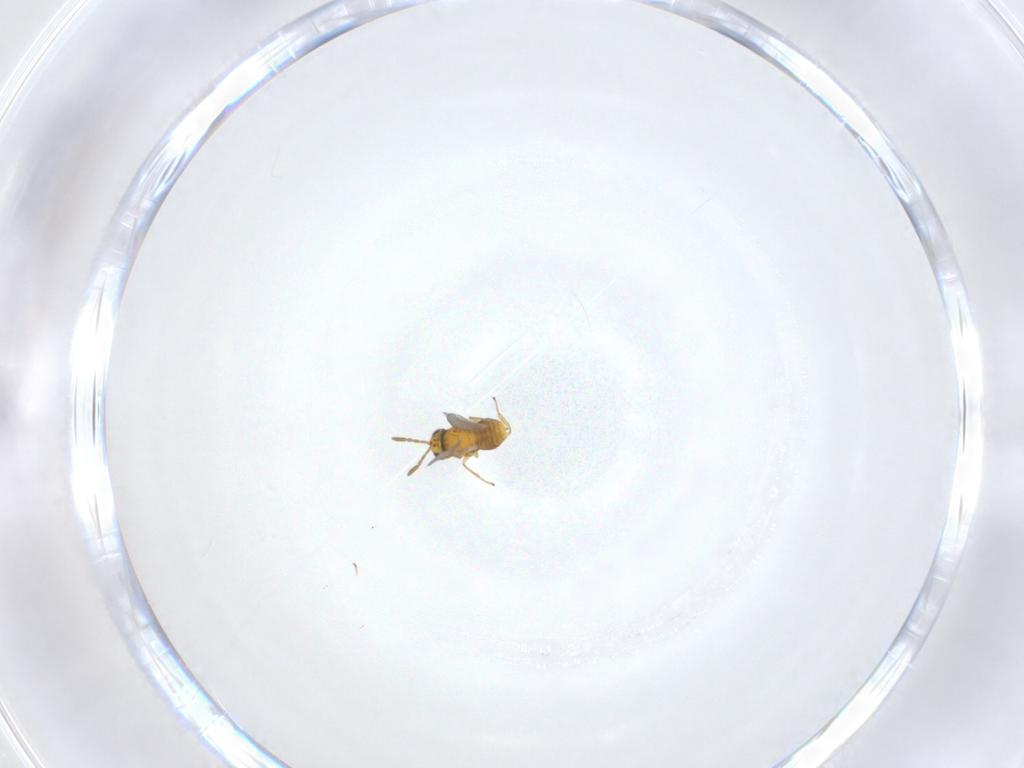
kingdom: Animalia
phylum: Arthropoda
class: Insecta
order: Hymenoptera
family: Aphelinidae
